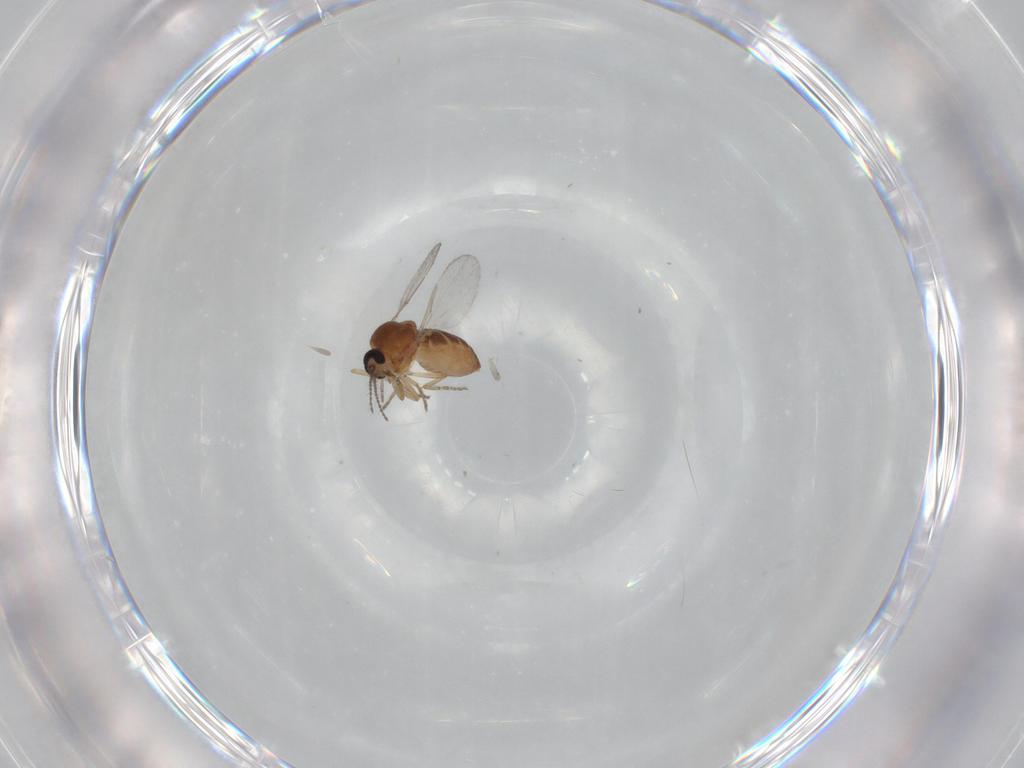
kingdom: Animalia
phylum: Arthropoda
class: Insecta
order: Diptera
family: Ceratopogonidae
